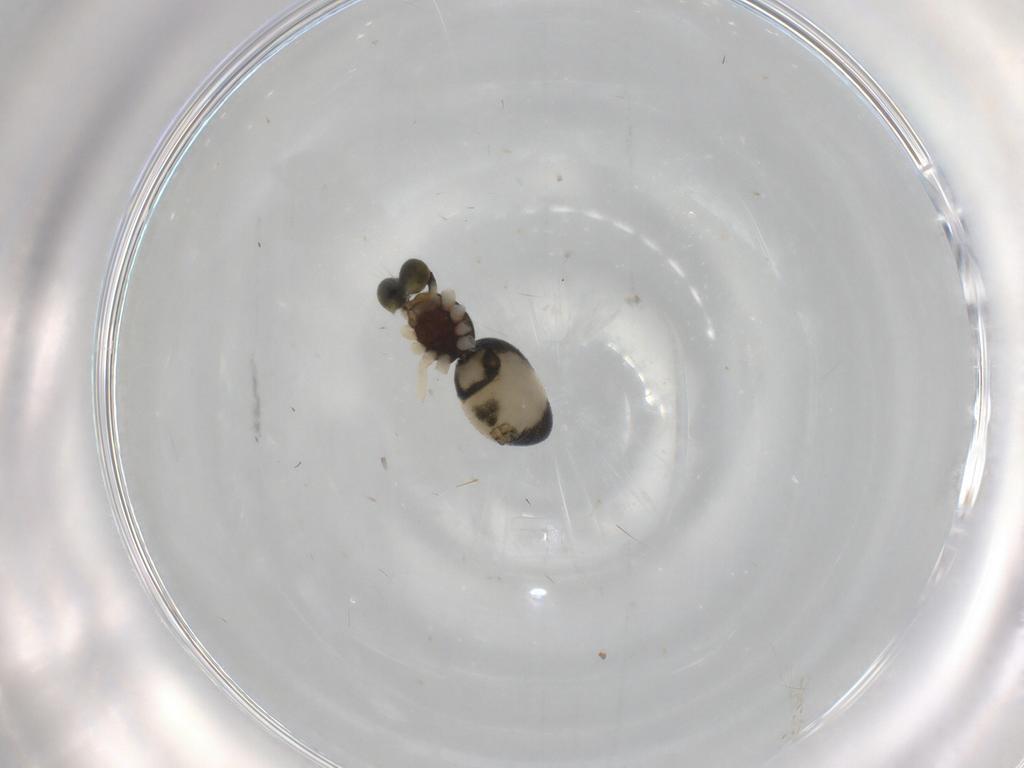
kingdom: Animalia
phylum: Arthropoda
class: Arachnida
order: Araneae
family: Theridiidae
